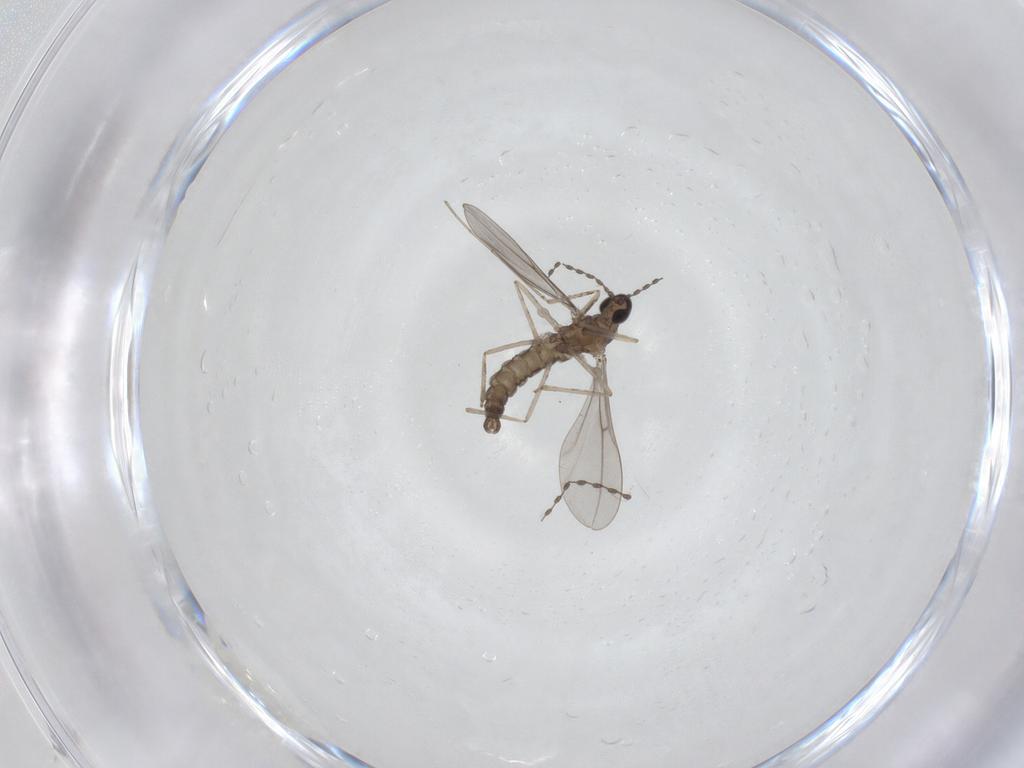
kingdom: Animalia
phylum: Arthropoda
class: Insecta
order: Diptera
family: Cecidomyiidae
